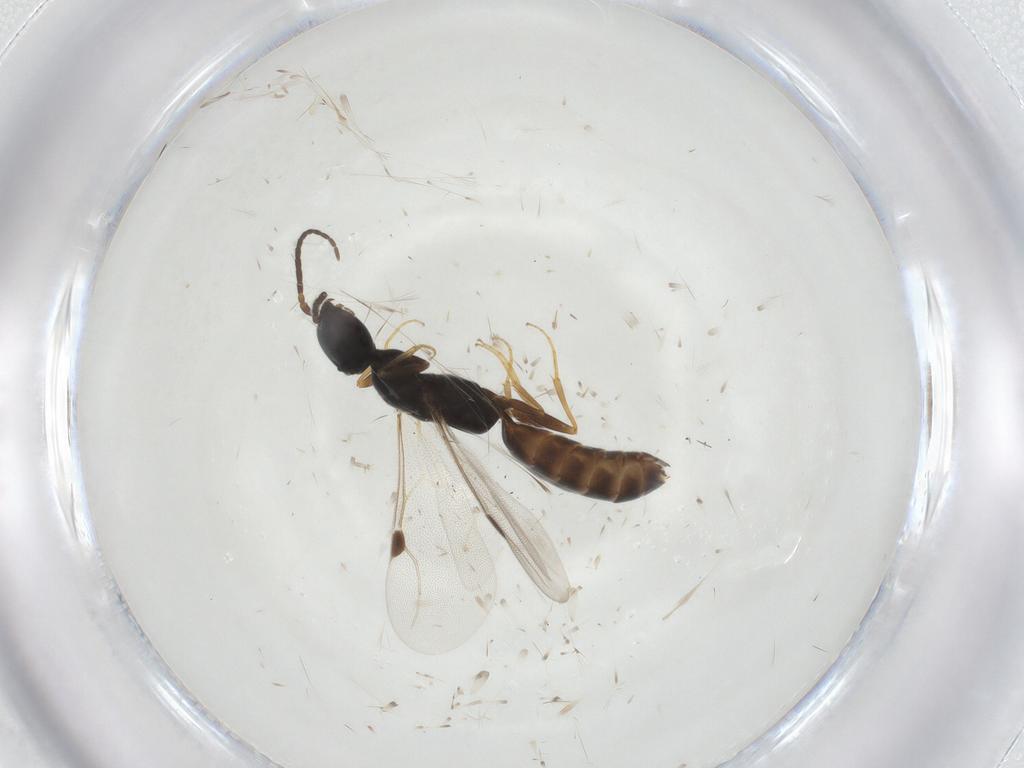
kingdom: Animalia
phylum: Arthropoda
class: Insecta
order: Hymenoptera
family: Bethylidae
